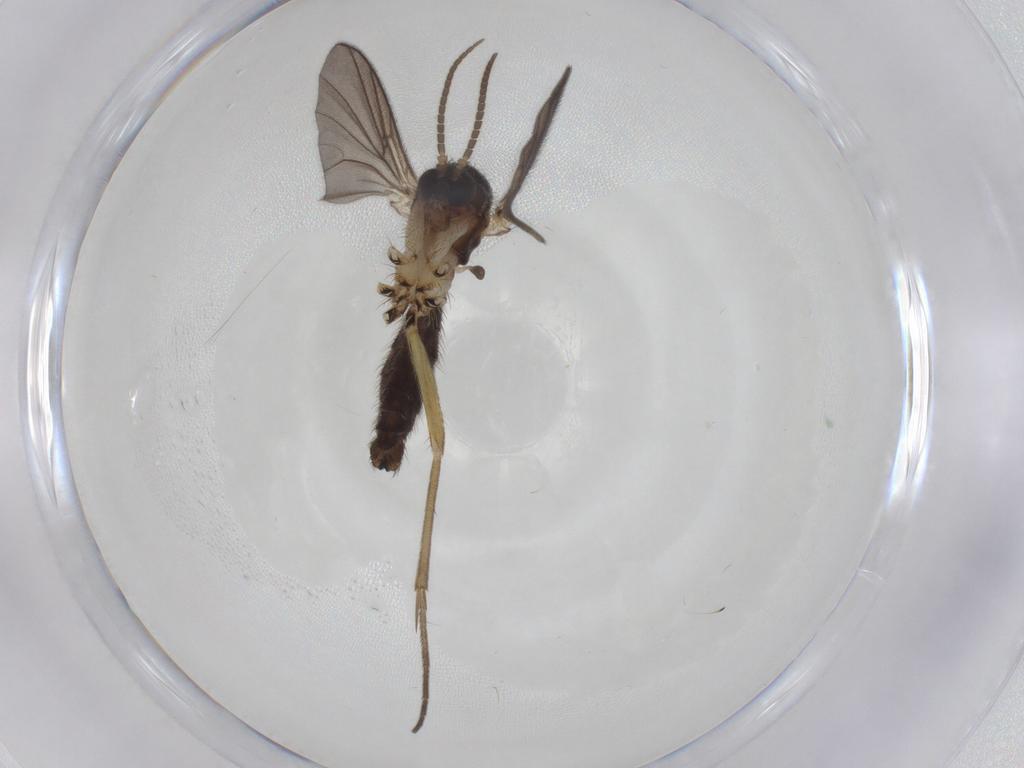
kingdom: Animalia
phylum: Arthropoda
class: Insecta
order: Diptera
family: Mycetophilidae
